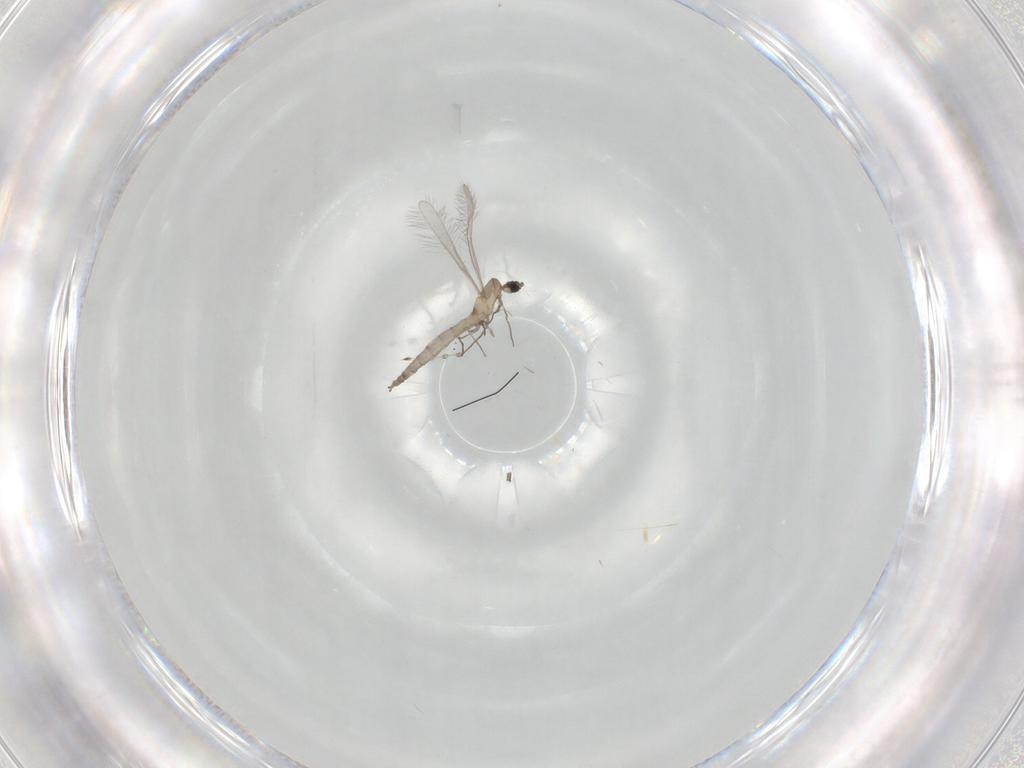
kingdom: Animalia
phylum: Arthropoda
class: Insecta
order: Diptera
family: Cecidomyiidae
